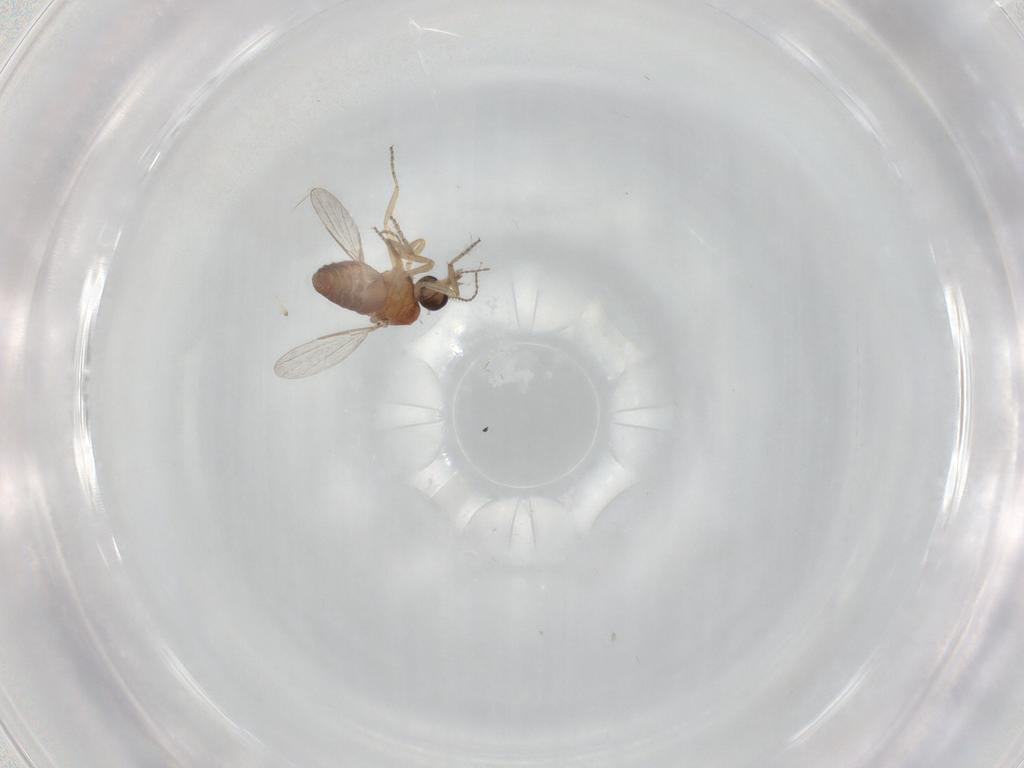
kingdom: Animalia
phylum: Arthropoda
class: Insecta
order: Diptera
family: Ceratopogonidae
